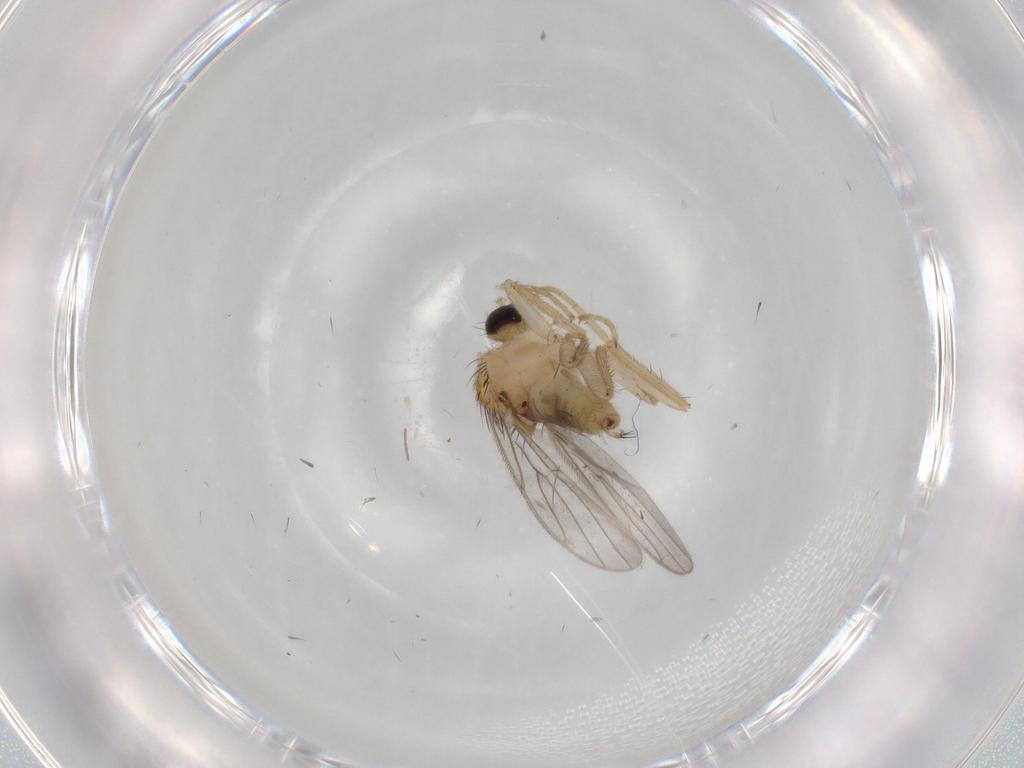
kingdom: Animalia
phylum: Arthropoda
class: Insecta
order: Diptera
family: Hybotidae
